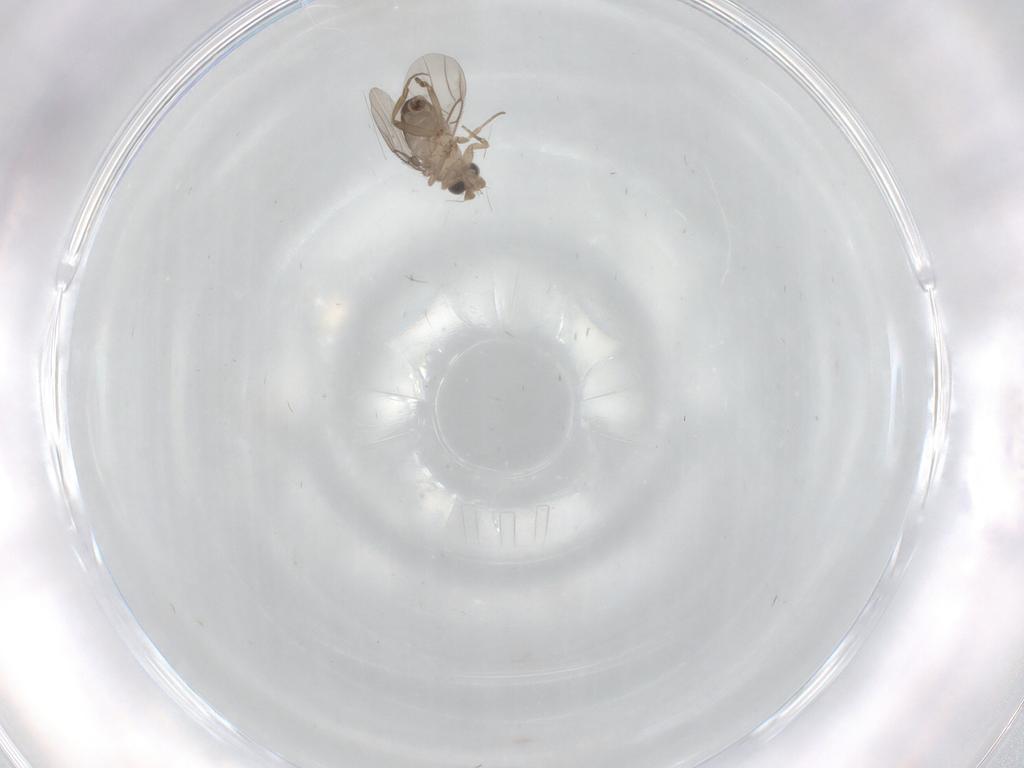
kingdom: Animalia
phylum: Arthropoda
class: Insecta
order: Diptera
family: Phoridae
